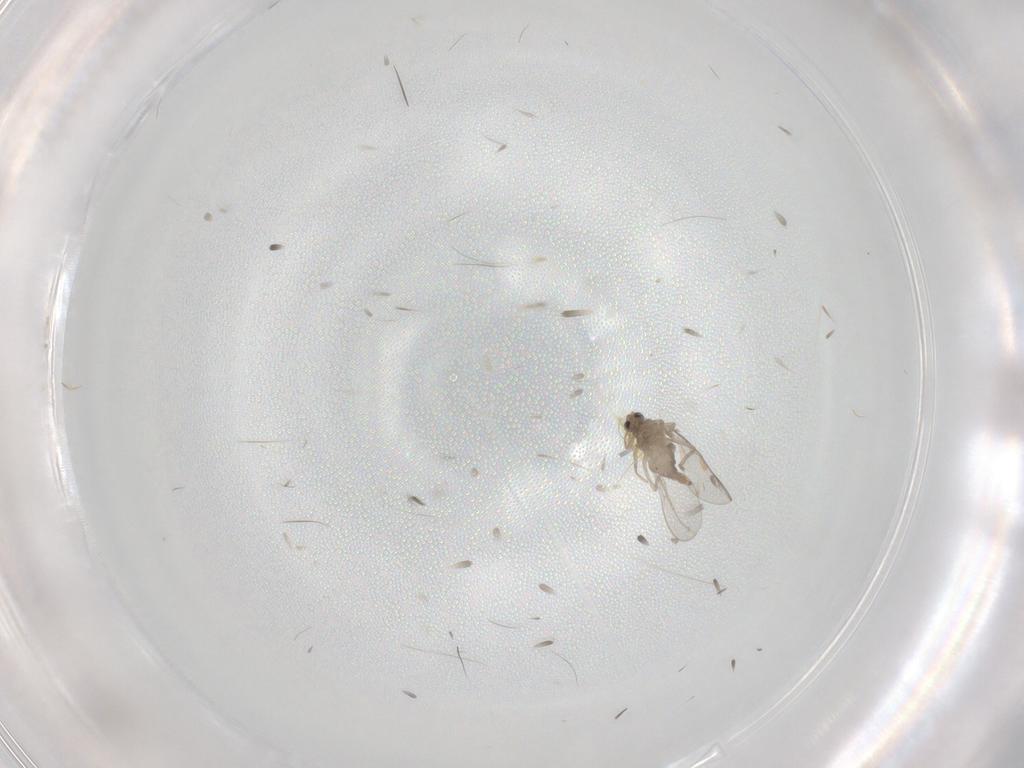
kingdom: Animalia
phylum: Arthropoda
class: Insecta
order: Diptera
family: Cecidomyiidae
